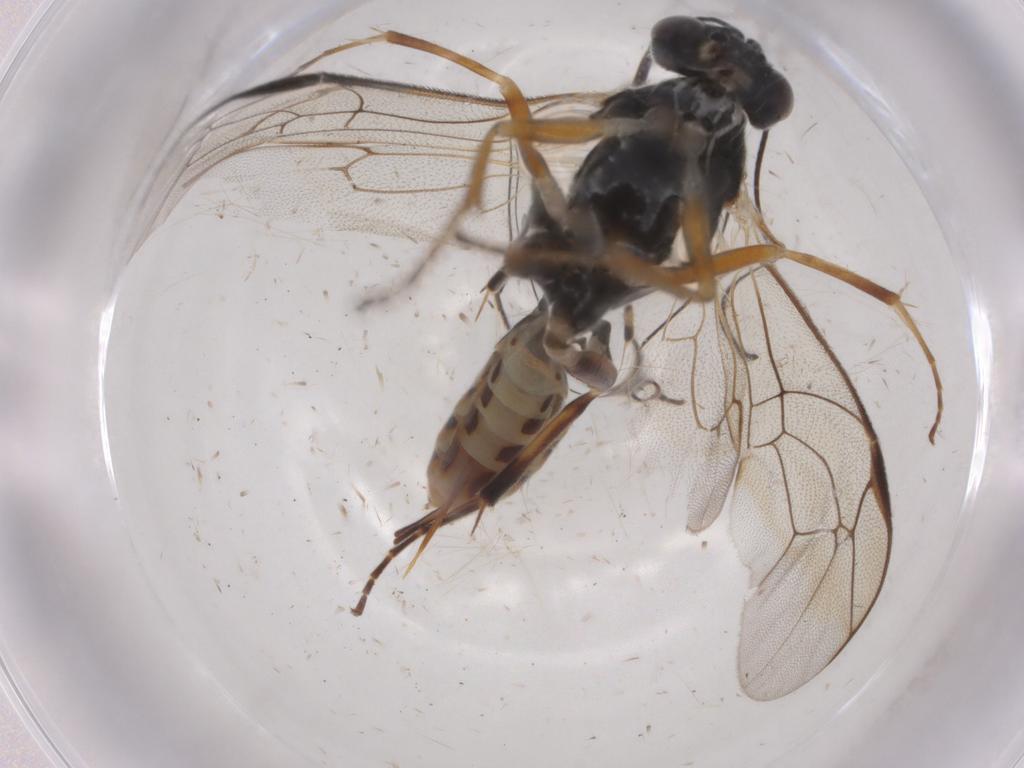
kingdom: Animalia
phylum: Arthropoda
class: Insecta
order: Hymenoptera
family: Ichneumonidae
